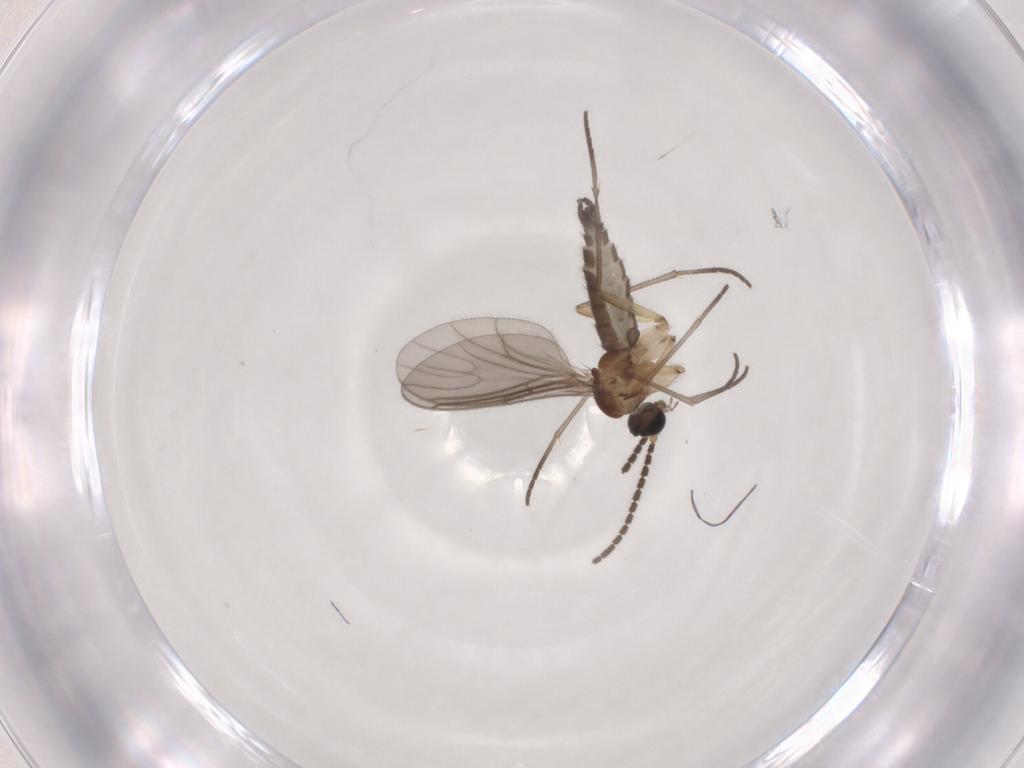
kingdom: Animalia
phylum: Arthropoda
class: Insecta
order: Diptera
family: Sciaridae
